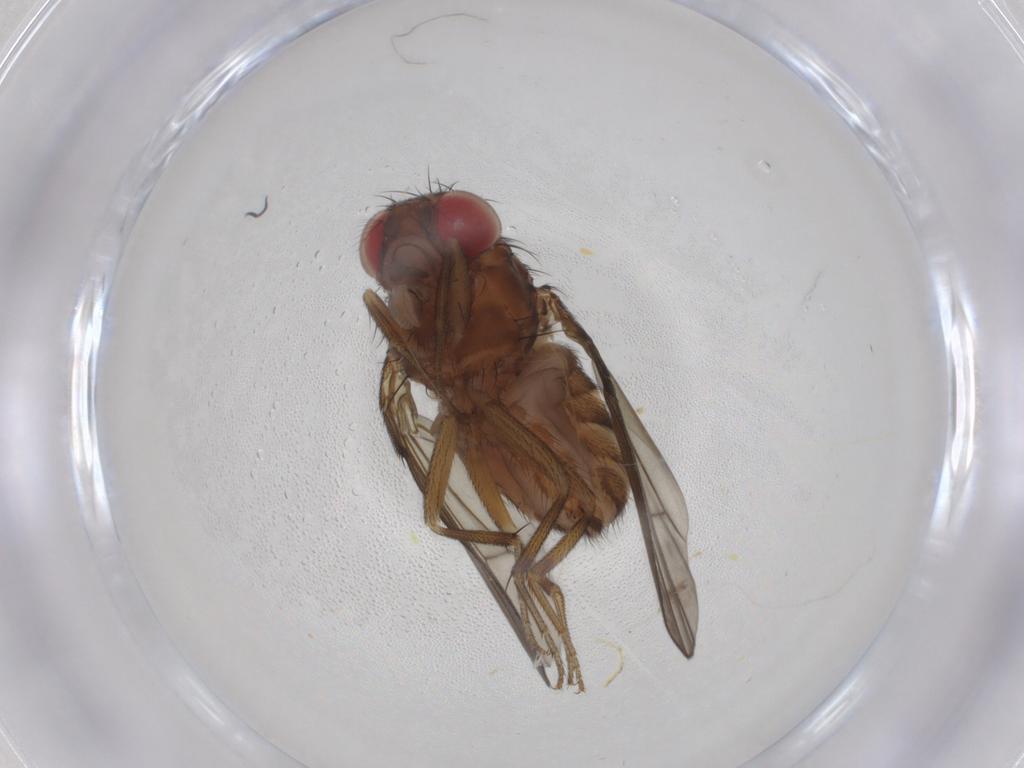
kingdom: Animalia
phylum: Arthropoda
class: Insecta
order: Diptera
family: Drosophilidae
